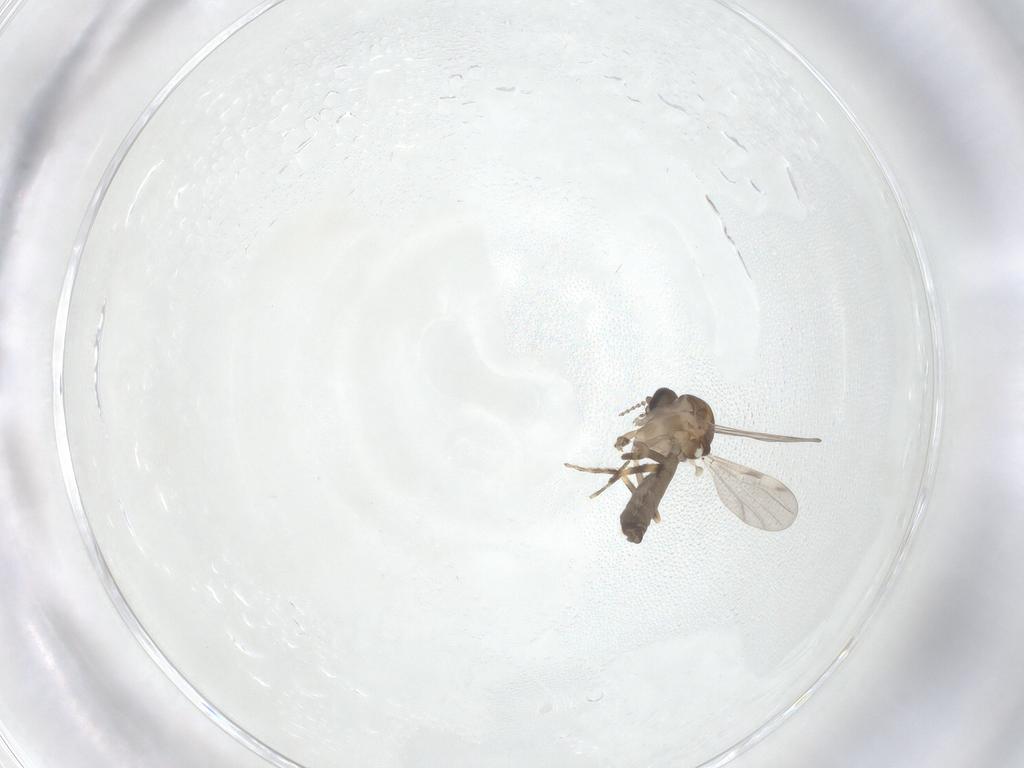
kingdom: Animalia
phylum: Arthropoda
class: Insecta
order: Diptera
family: Ceratopogonidae
